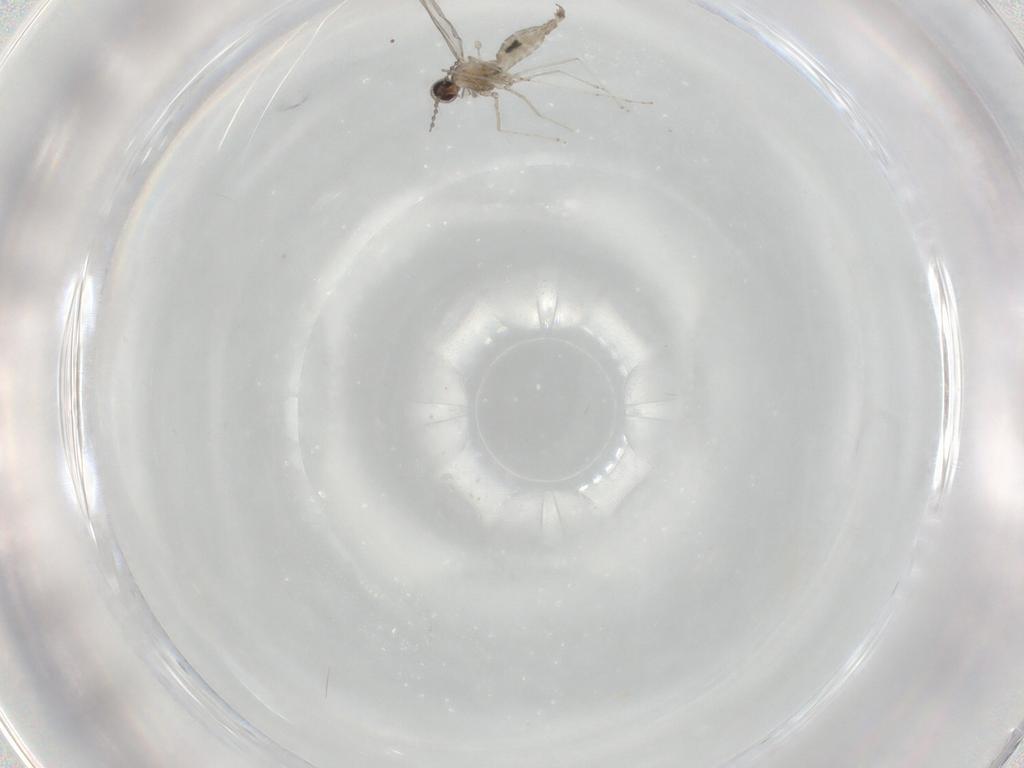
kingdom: Animalia
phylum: Arthropoda
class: Insecta
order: Diptera
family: Cecidomyiidae
